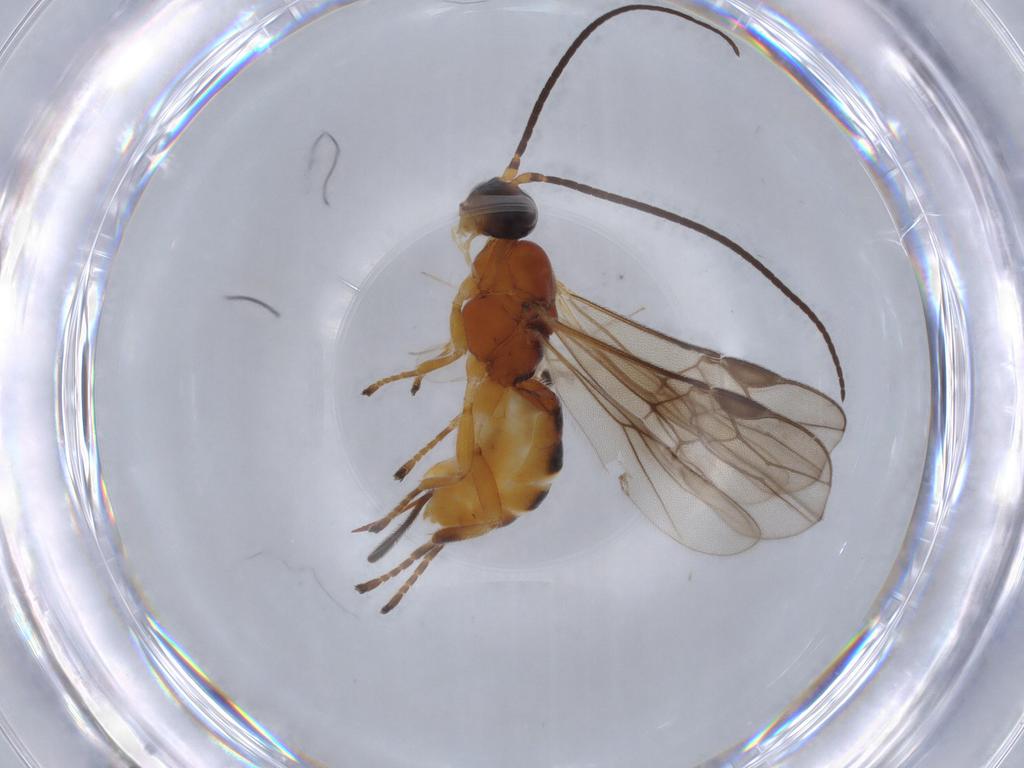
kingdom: Animalia
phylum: Arthropoda
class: Insecta
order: Hymenoptera
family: Braconidae
